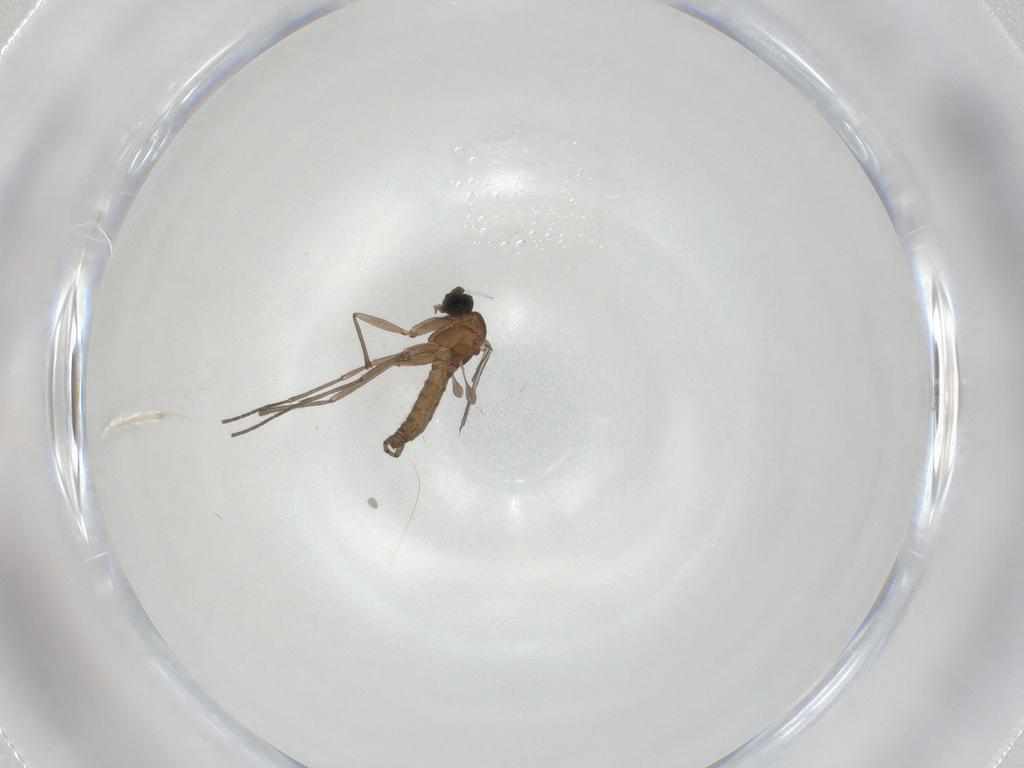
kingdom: Animalia
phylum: Arthropoda
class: Insecta
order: Diptera
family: Sciaridae
